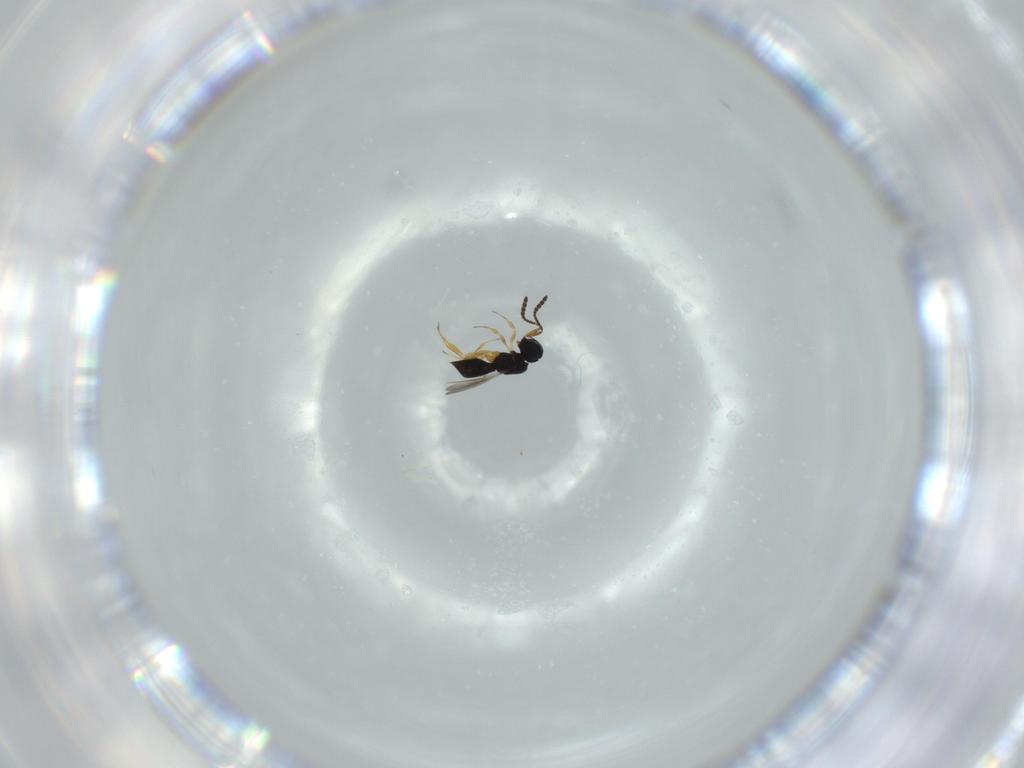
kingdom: Animalia
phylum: Arthropoda
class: Insecta
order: Hymenoptera
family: Scelionidae
